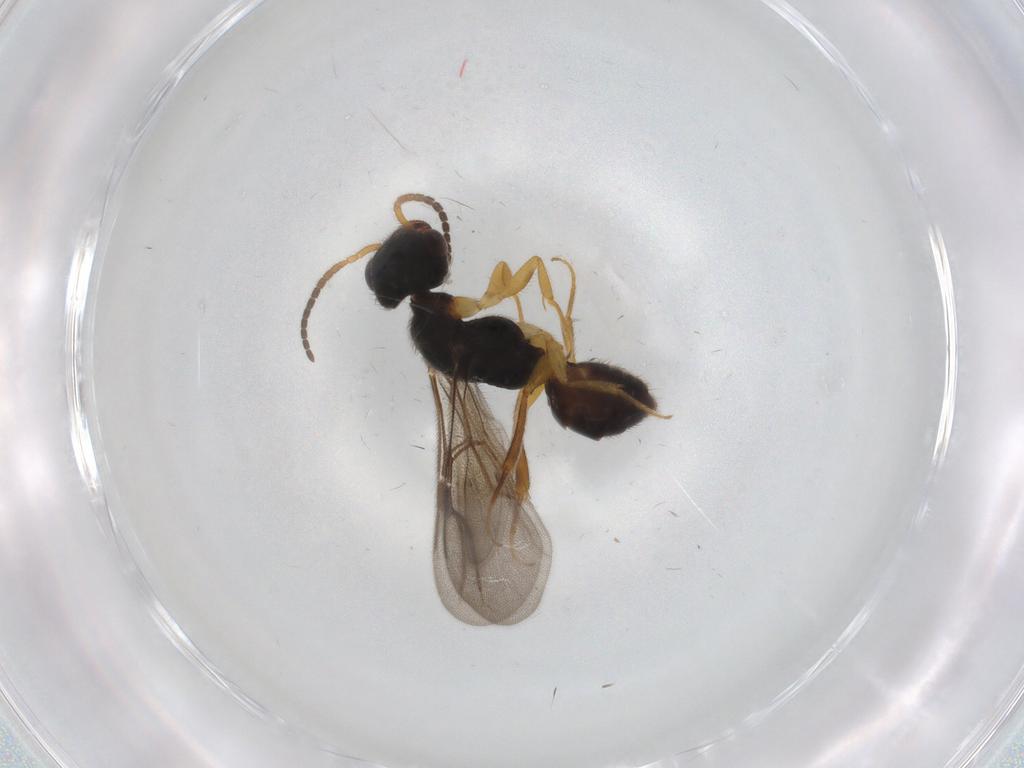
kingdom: Animalia
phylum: Arthropoda
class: Insecta
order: Hymenoptera
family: Bethylidae
